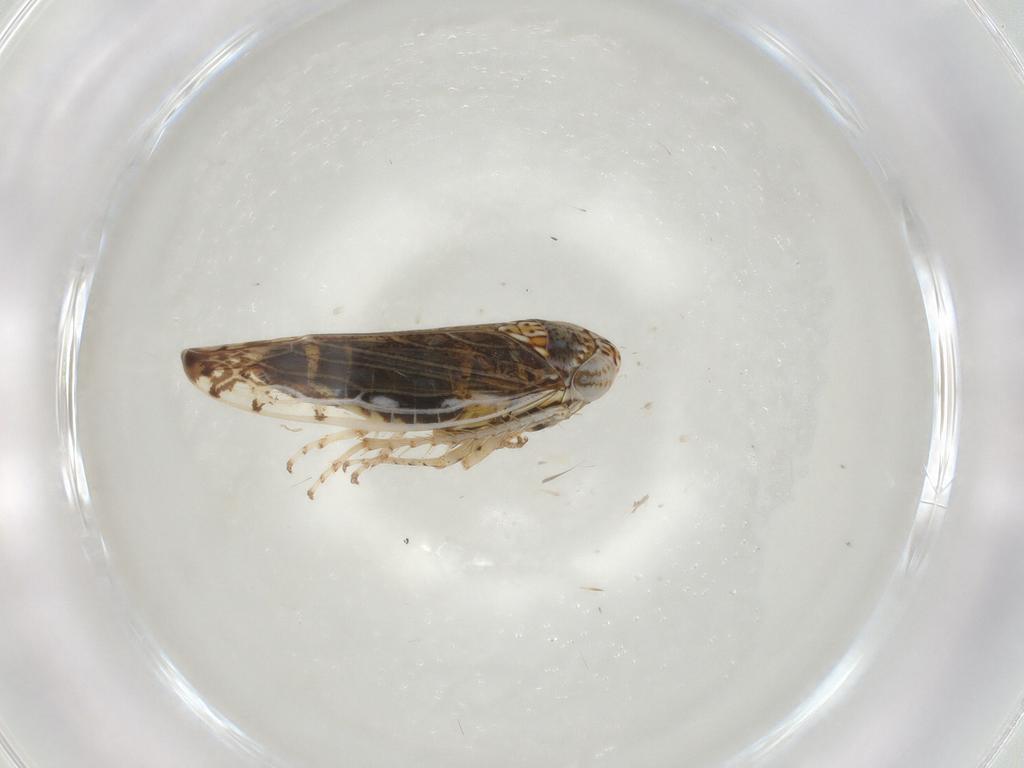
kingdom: Animalia
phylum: Arthropoda
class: Insecta
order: Hemiptera
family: Cicadellidae
